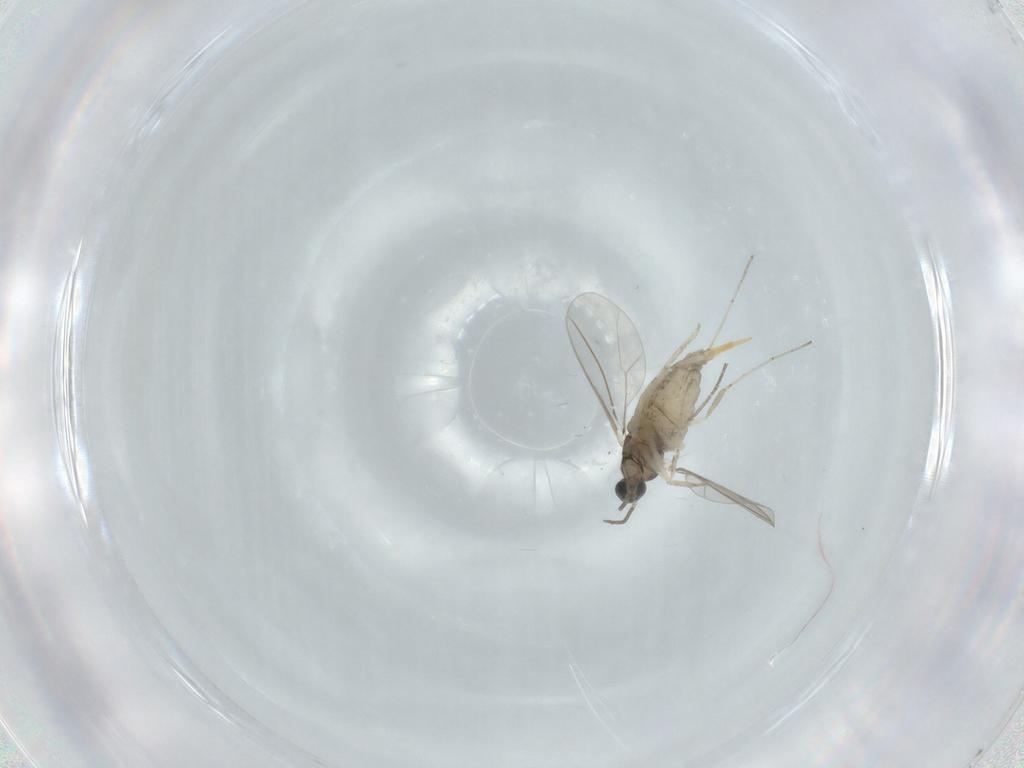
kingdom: Animalia
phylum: Arthropoda
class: Insecta
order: Diptera
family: Cecidomyiidae
